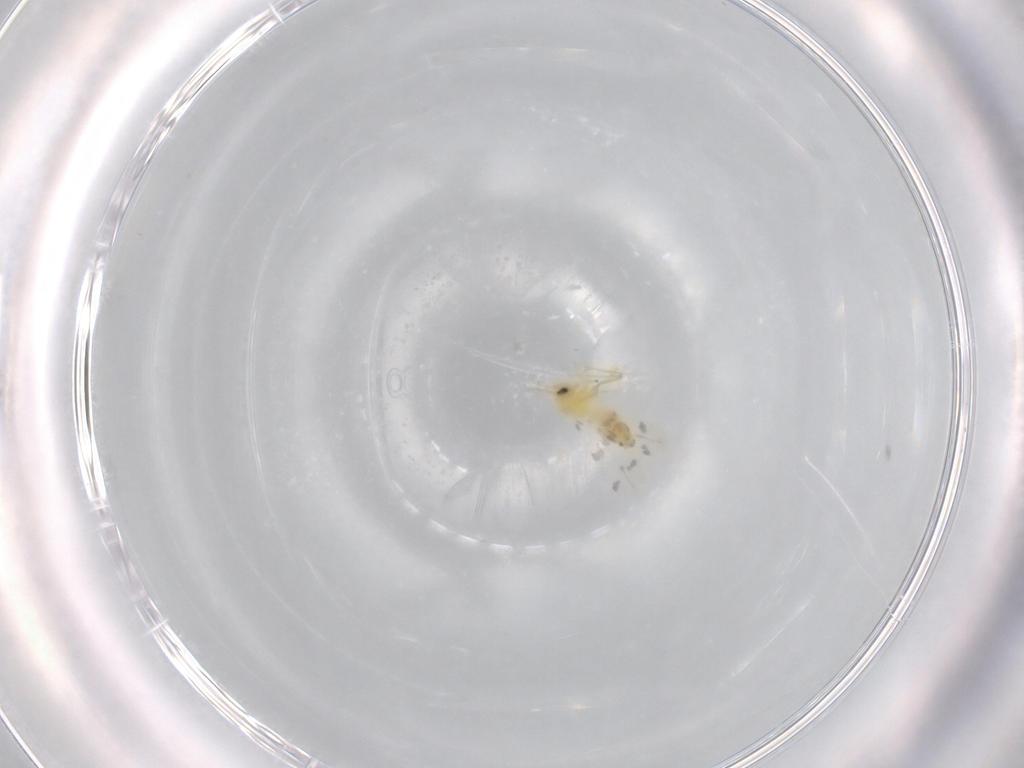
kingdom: Animalia
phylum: Arthropoda
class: Insecta
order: Hemiptera
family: Aleyrodidae
